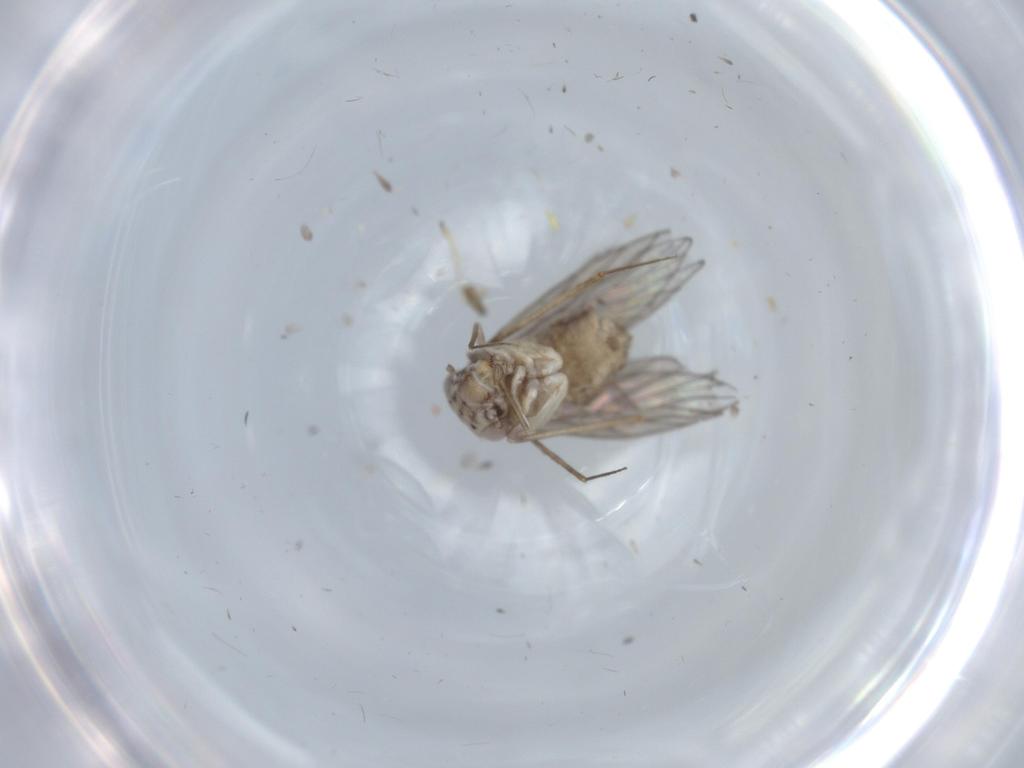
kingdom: Animalia
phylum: Arthropoda
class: Insecta
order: Psocodea
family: Lepidopsocidae
